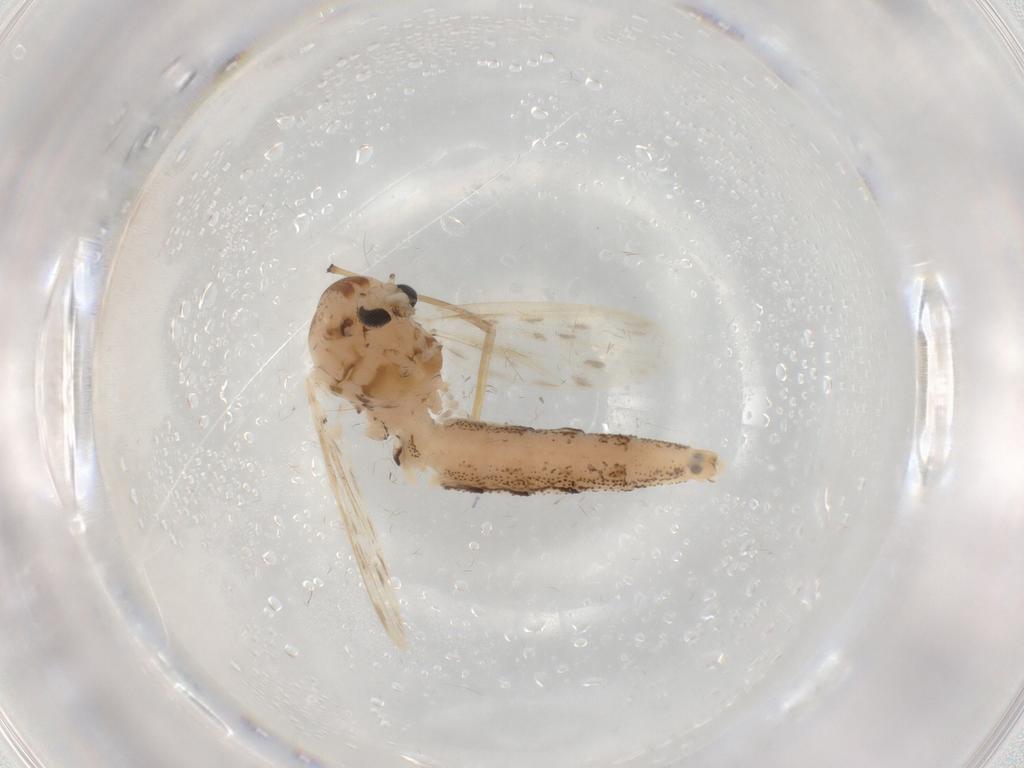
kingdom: Animalia
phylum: Arthropoda
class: Insecta
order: Diptera
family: Chaoboridae
